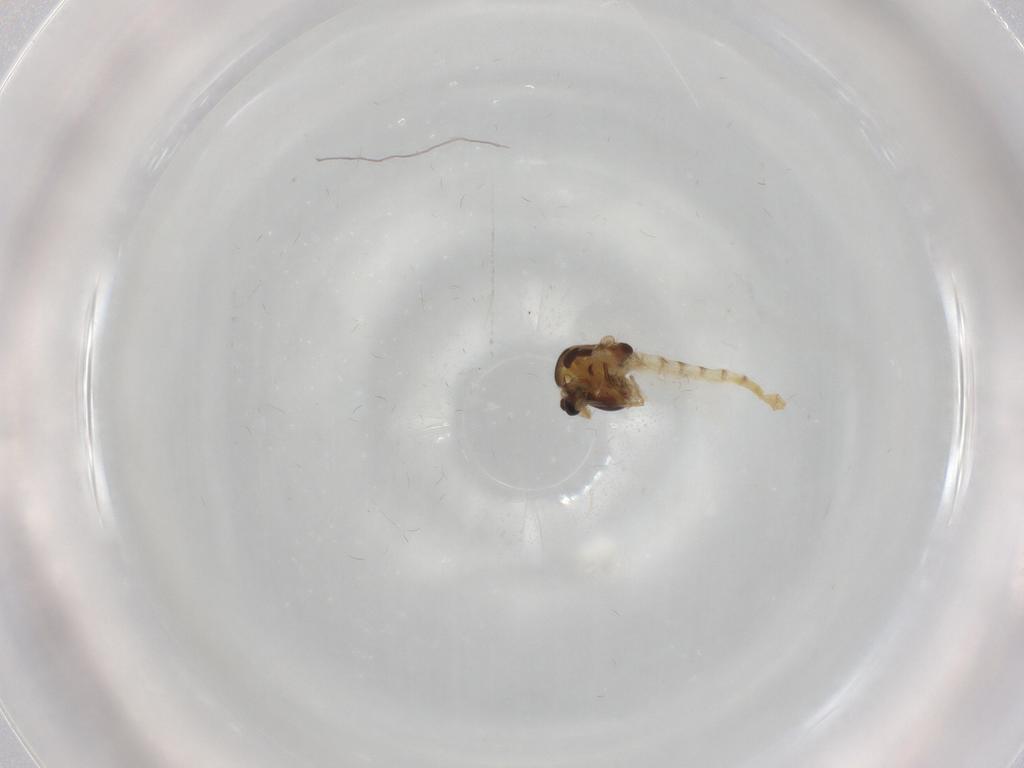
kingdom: Animalia
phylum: Arthropoda
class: Insecta
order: Diptera
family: Chironomidae
